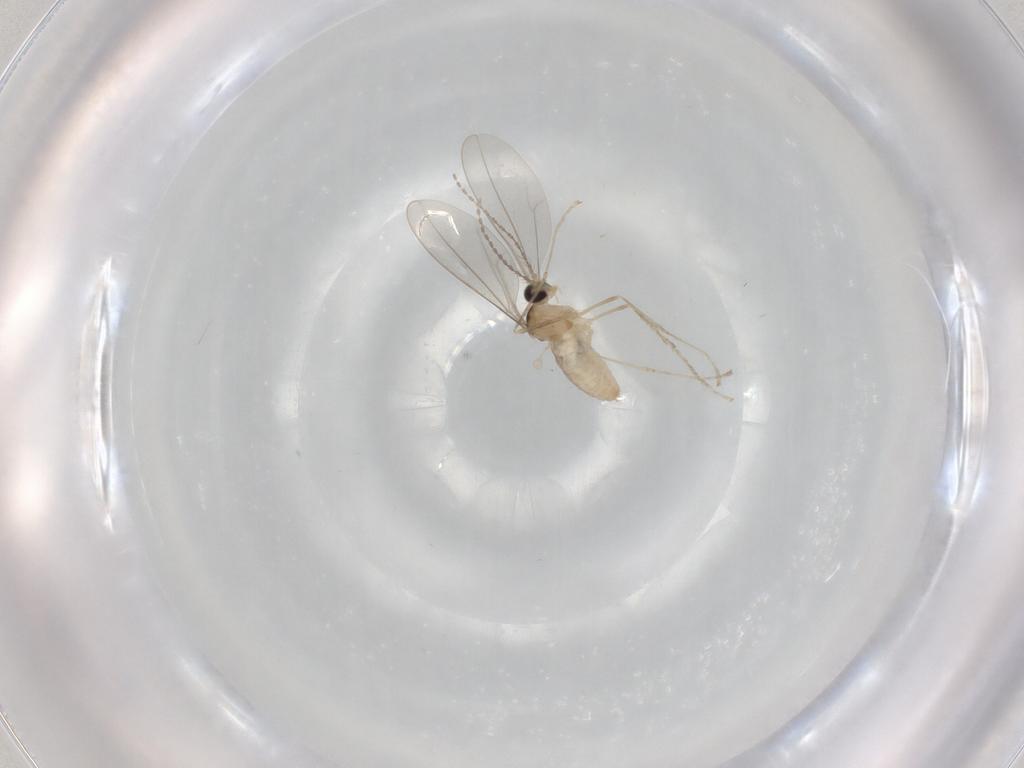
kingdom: Animalia
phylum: Arthropoda
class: Insecta
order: Diptera
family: Cecidomyiidae
